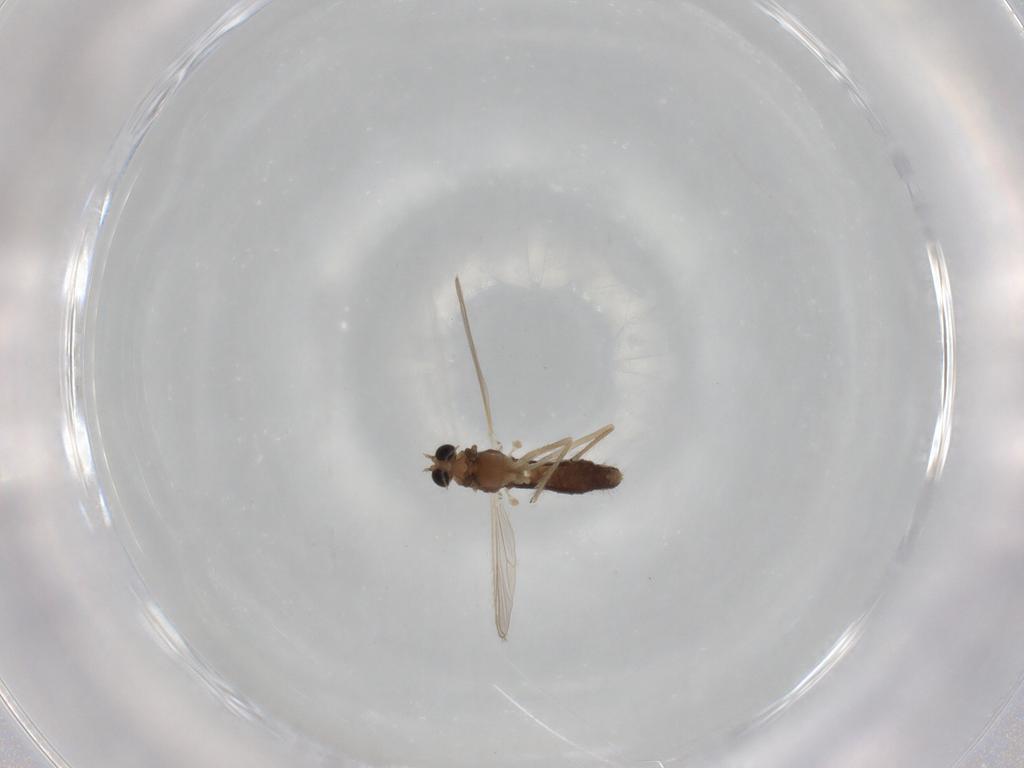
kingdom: Animalia
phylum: Arthropoda
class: Insecta
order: Diptera
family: Chironomidae
